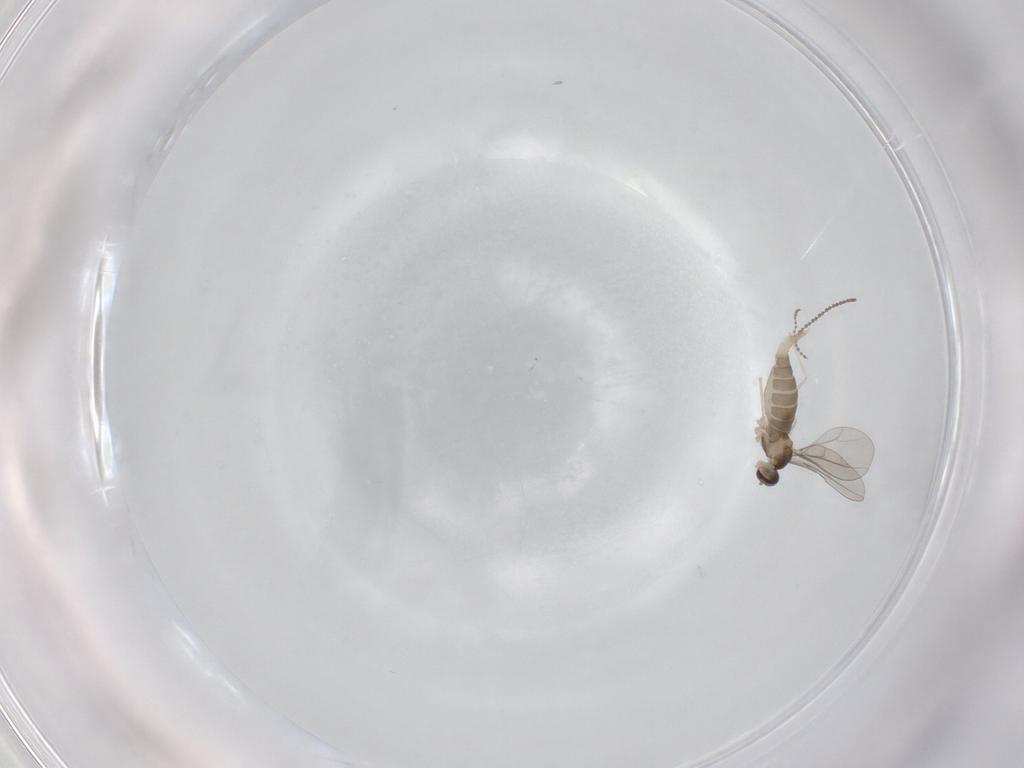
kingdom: Animalia
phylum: Arthropoda
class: Insecta
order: Diptera
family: Cecidomyiidae
